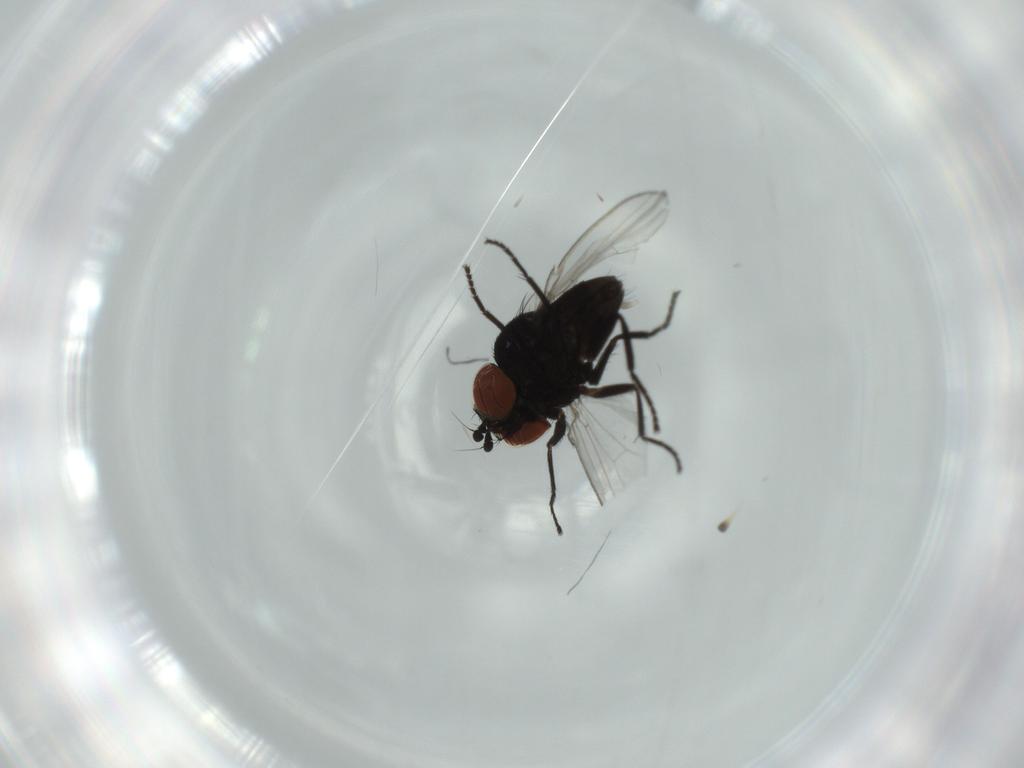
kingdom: Animalia
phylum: Arthropoda
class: Insecta
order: Diptera
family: Milichiidae
